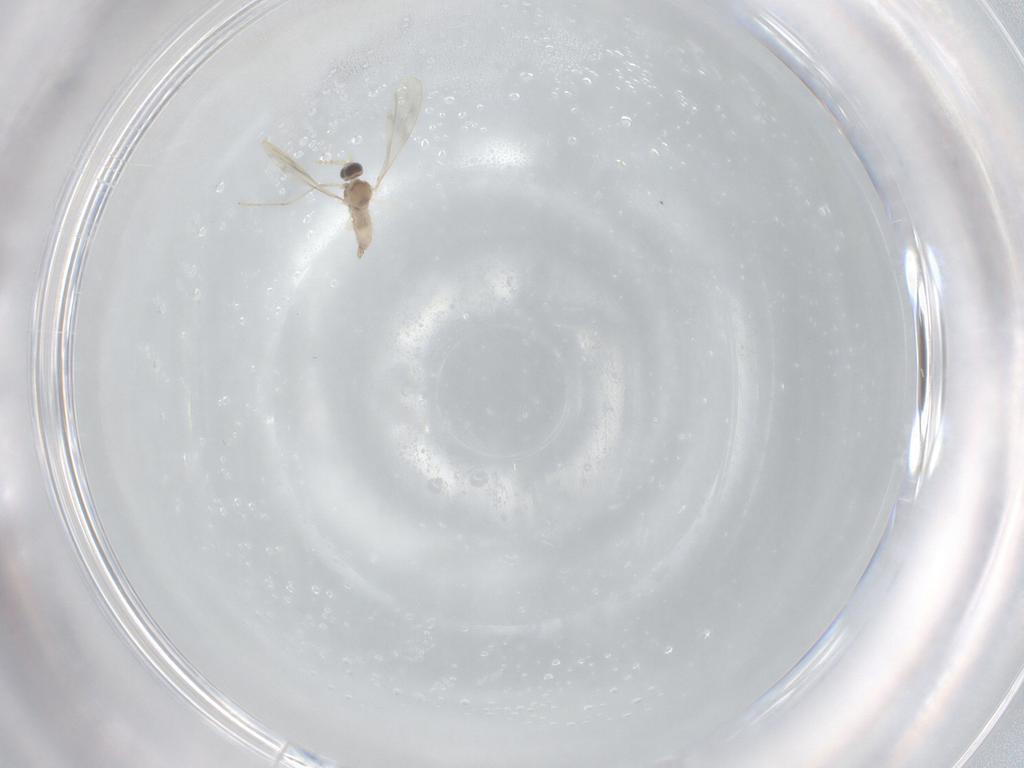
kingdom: Animalia
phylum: Arthropoda
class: Insecta
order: Diptera
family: Cecidomyiidae
